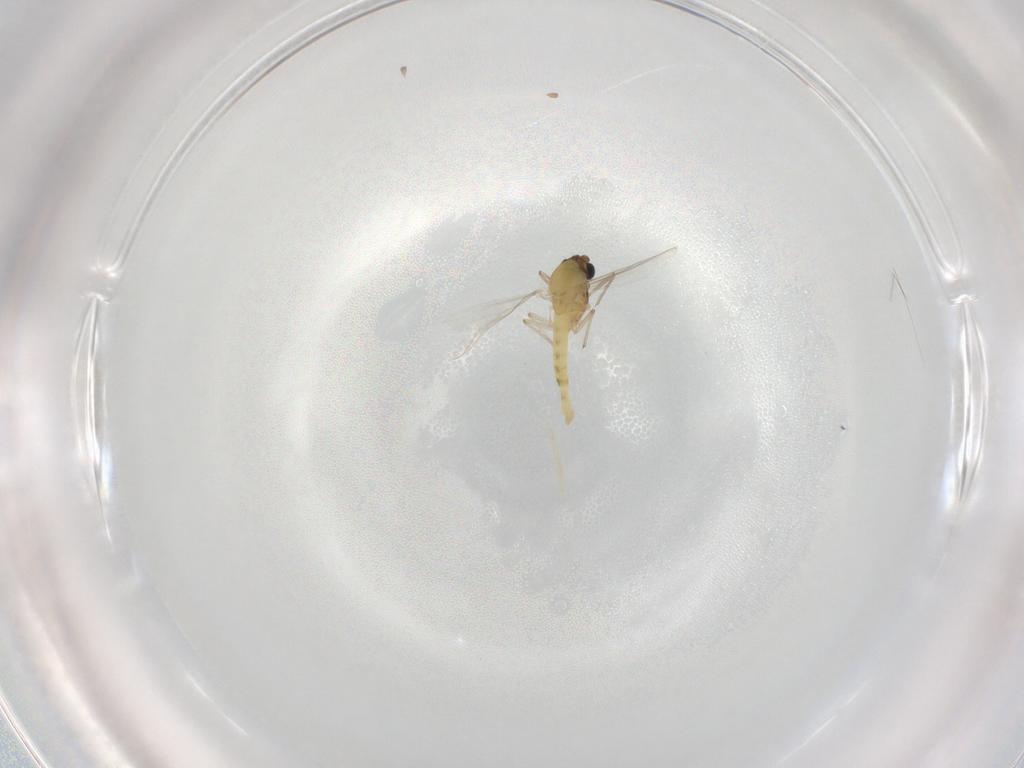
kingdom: Animalia
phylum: Arthropoda
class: Insecta
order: Diptera
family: Chironomidae
